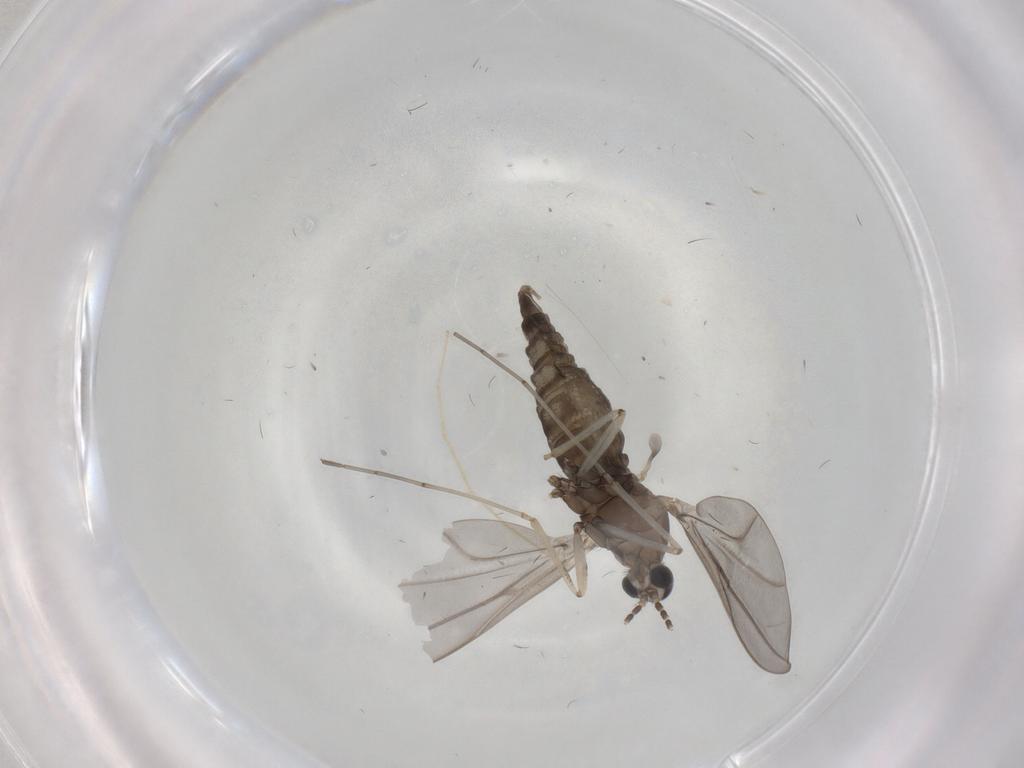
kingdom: Animalia
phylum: Arthropoda
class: Insecta
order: Diptera
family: Cecidomyiidae
